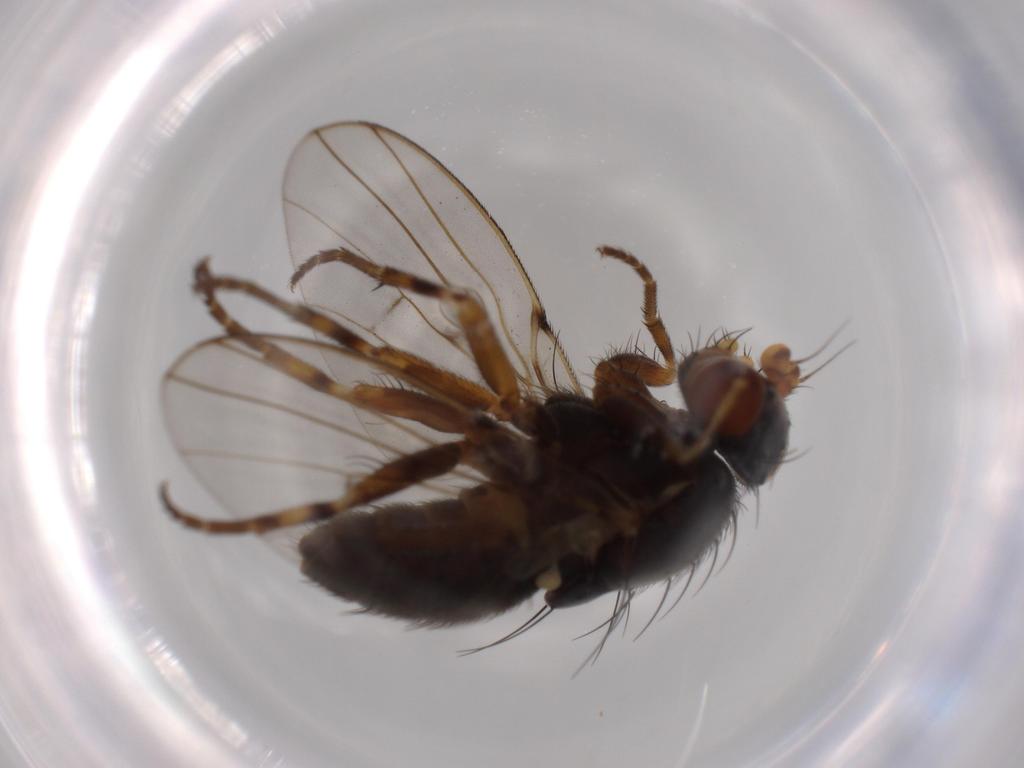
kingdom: Animalia
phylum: Arthropoda
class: Insecta
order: Diptera
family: Odiniidae
